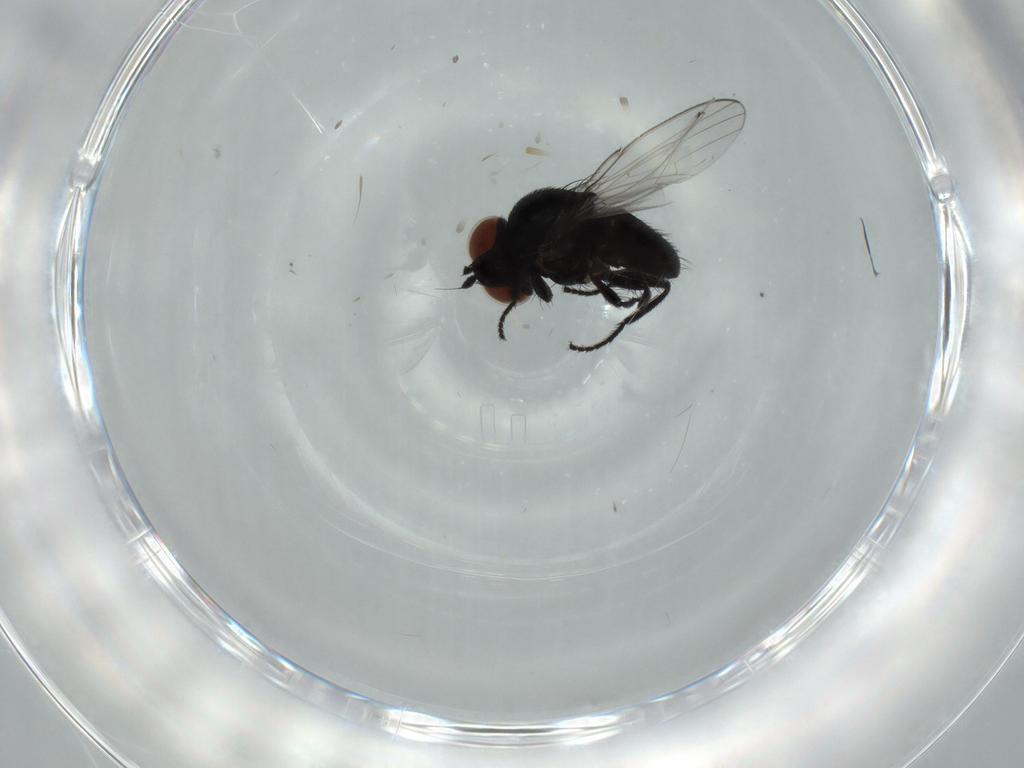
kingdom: Animalia
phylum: Arthropoda
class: Insecta
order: Diptera
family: Milichiidae
